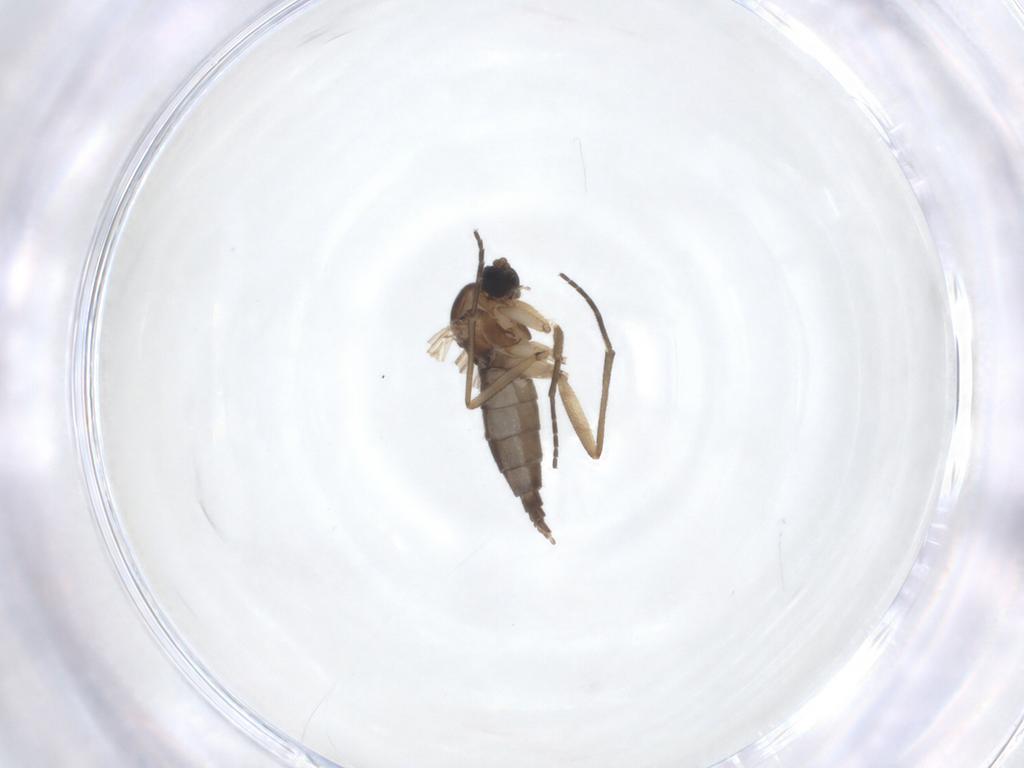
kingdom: Animalia
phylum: Arthropoda
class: Insecta
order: Diptera
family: Sciaridae
